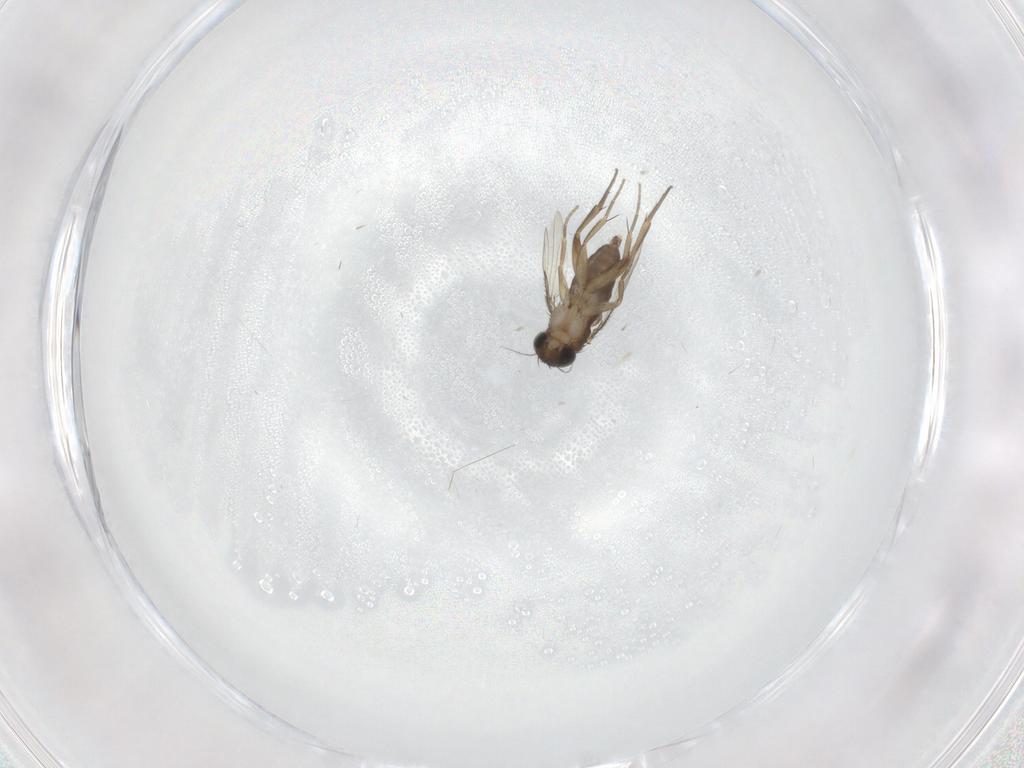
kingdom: Animalia
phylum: Arthropoda
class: Insecta
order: Diptera
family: Phoridae
